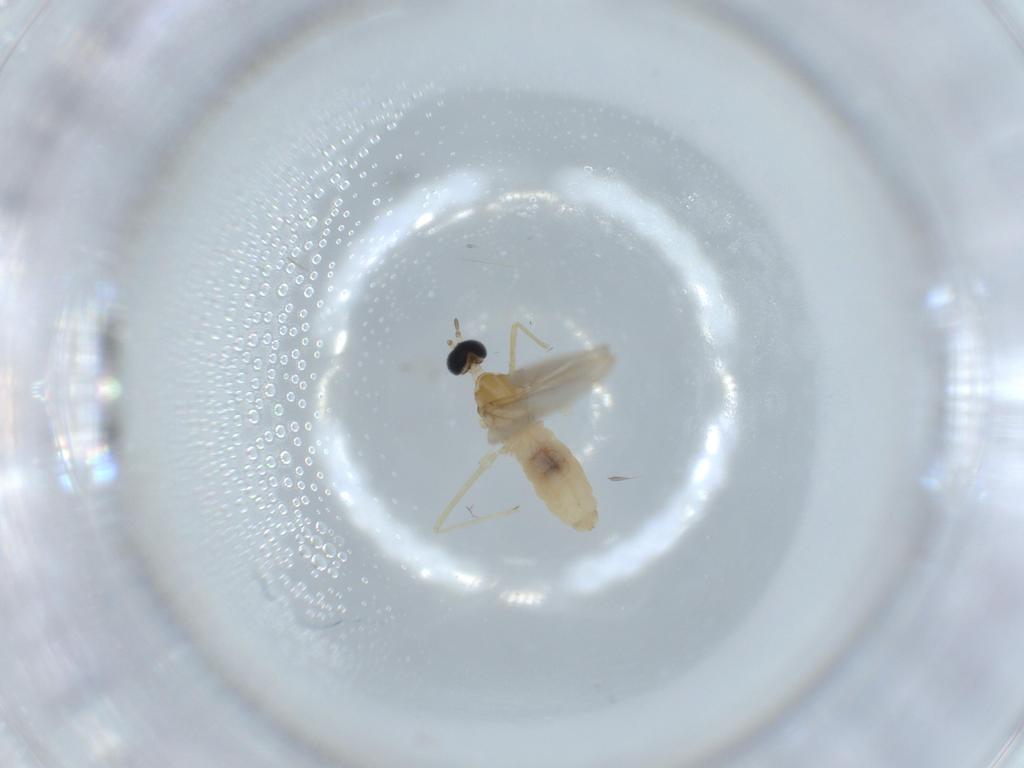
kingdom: Animalia
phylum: Arthropoda
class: Insecta
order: Diptera
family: Cecidomyiidae
